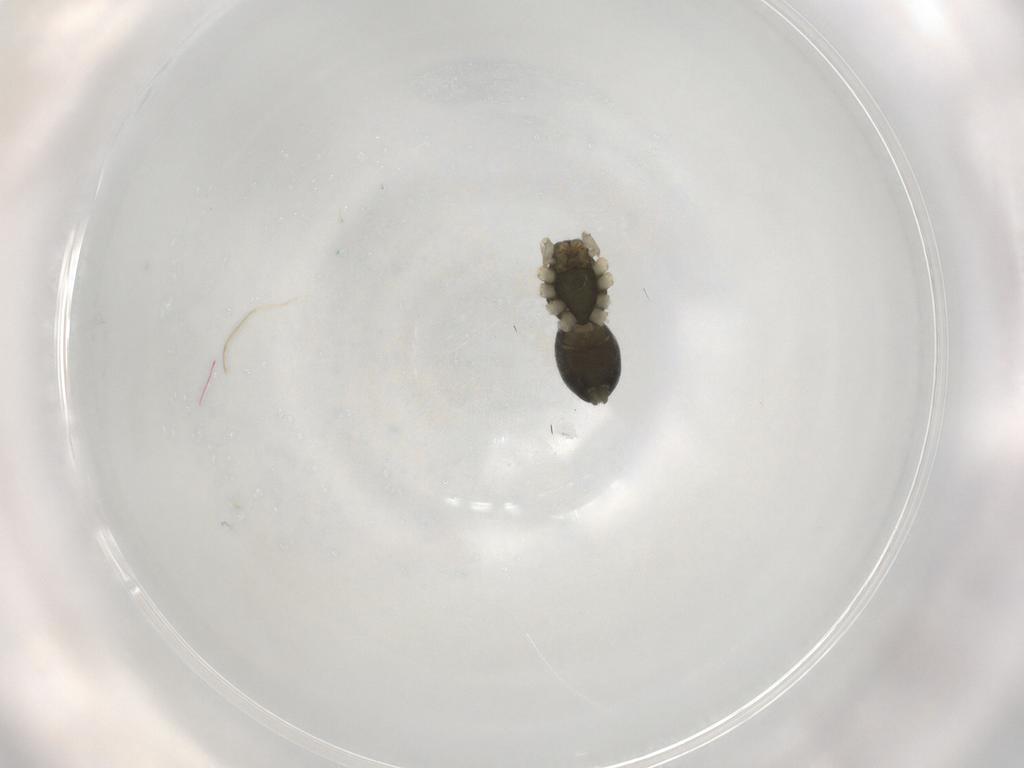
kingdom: Animalia
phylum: Arthropoda
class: Arachnida
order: Araneae
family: Trachelidae
